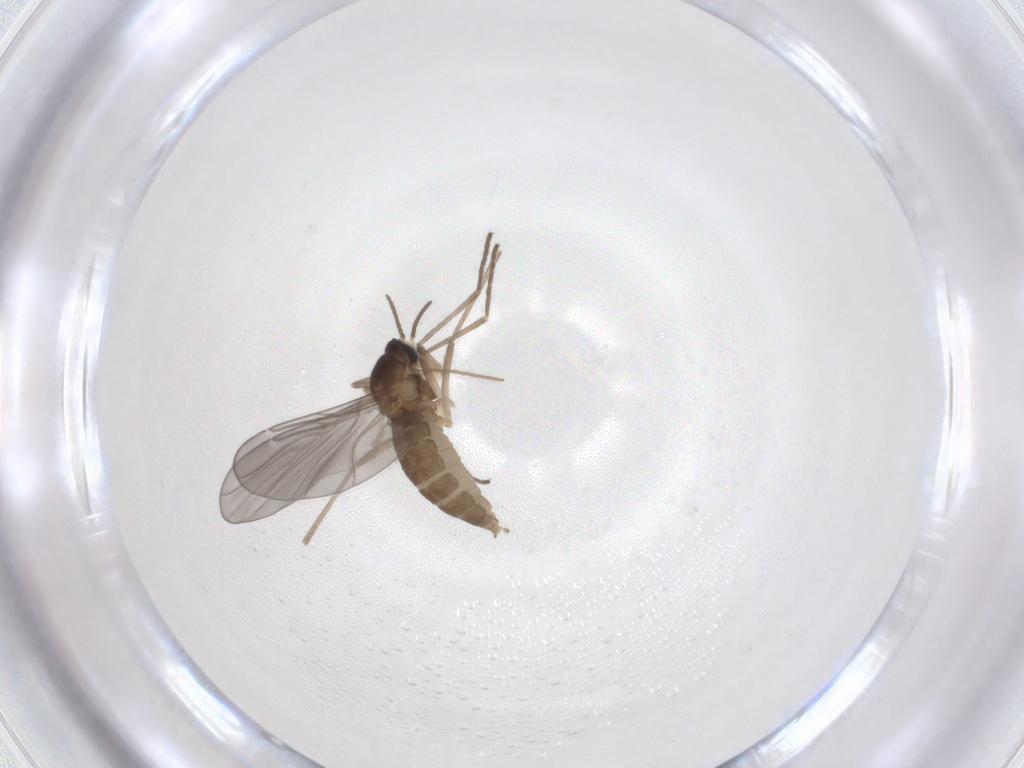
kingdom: Animalia
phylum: Arthropoda
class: Insecta
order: Diptera
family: Cecidomyiidae
